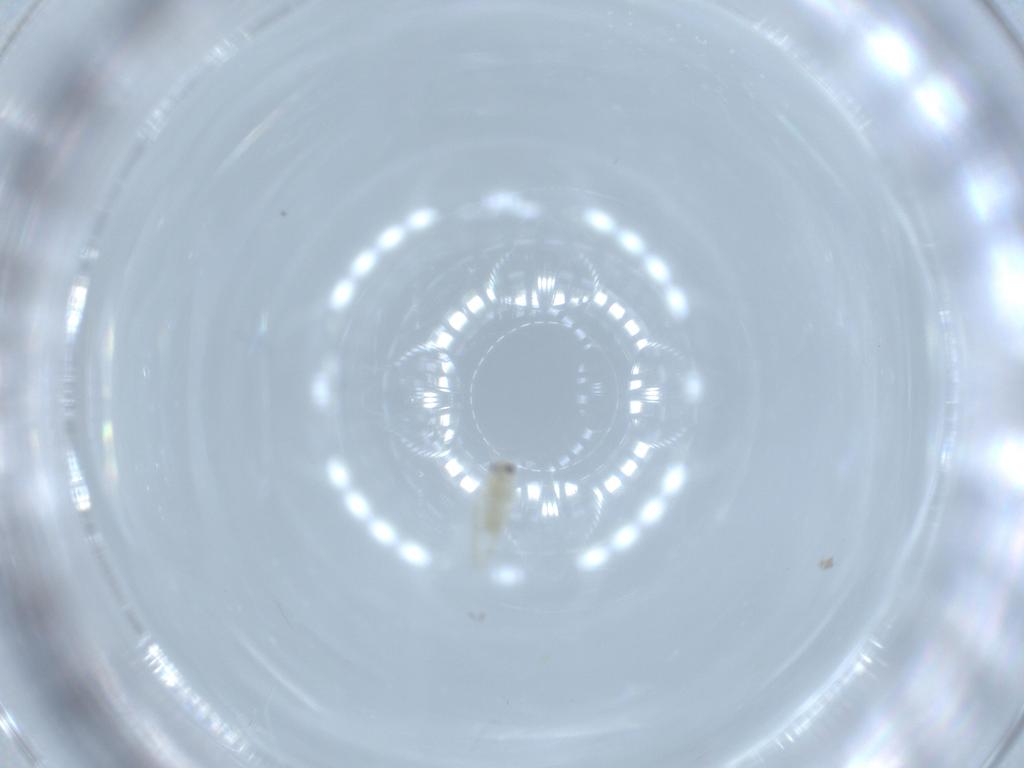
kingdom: Animalia
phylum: Arthropoda
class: Insecta
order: Hemiptera
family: Aleyrodidae
